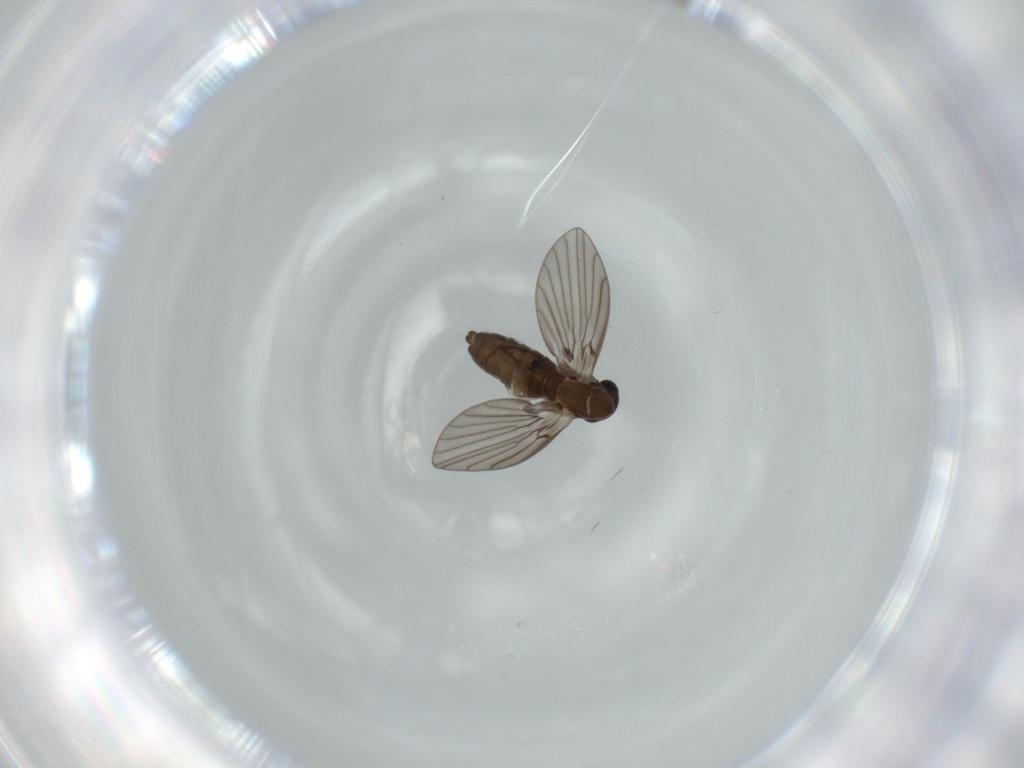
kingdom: Animalia
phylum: Arthropoda
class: Insecta
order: Diptera
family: Psychodidae
